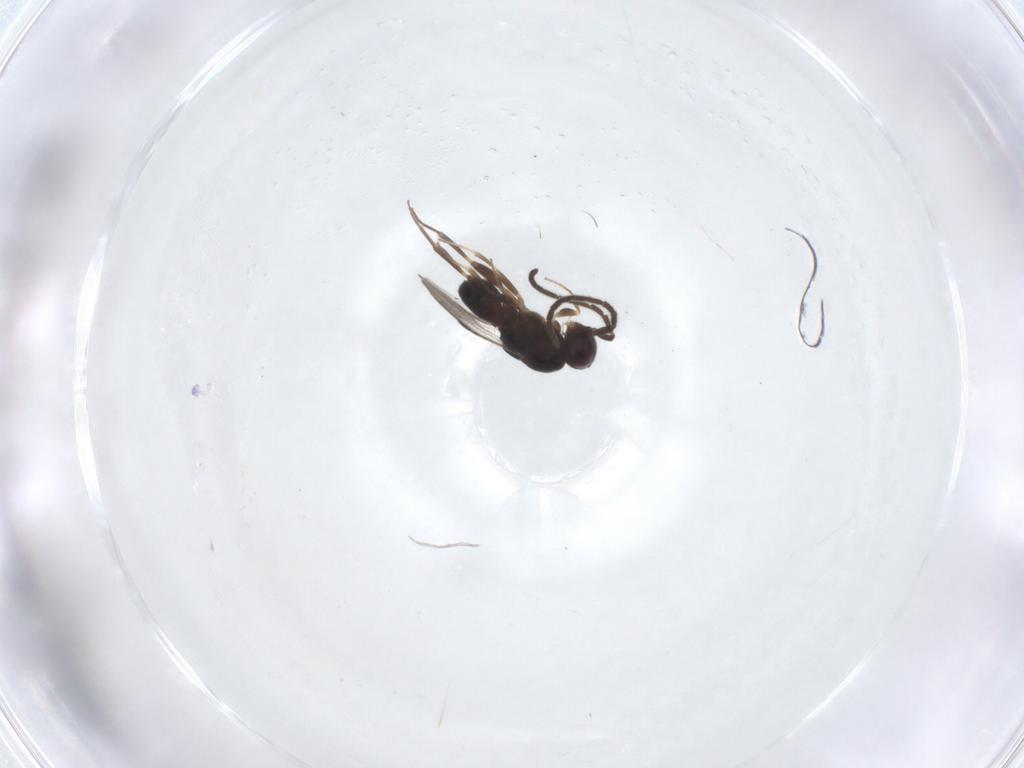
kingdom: Animalia
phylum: Arthropoda
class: Insecta
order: Hymenoptera
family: Megaspilidae
